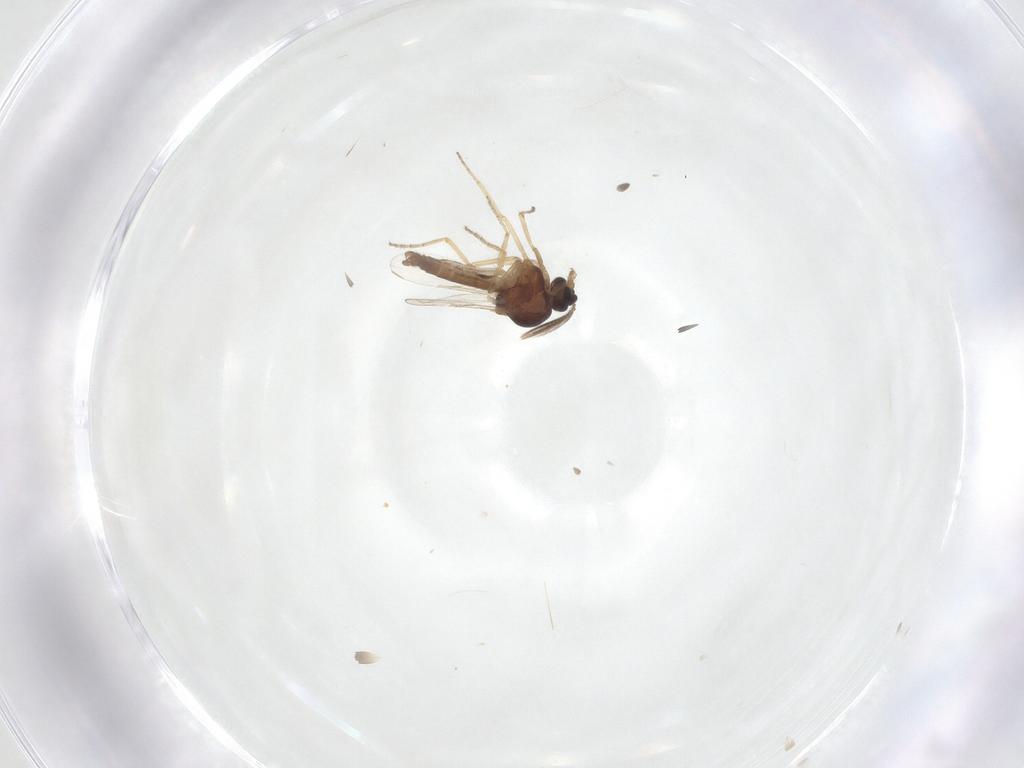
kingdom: Animalia
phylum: Arthropoda
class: Insecta
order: Diptera
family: Ceratopogonidae
